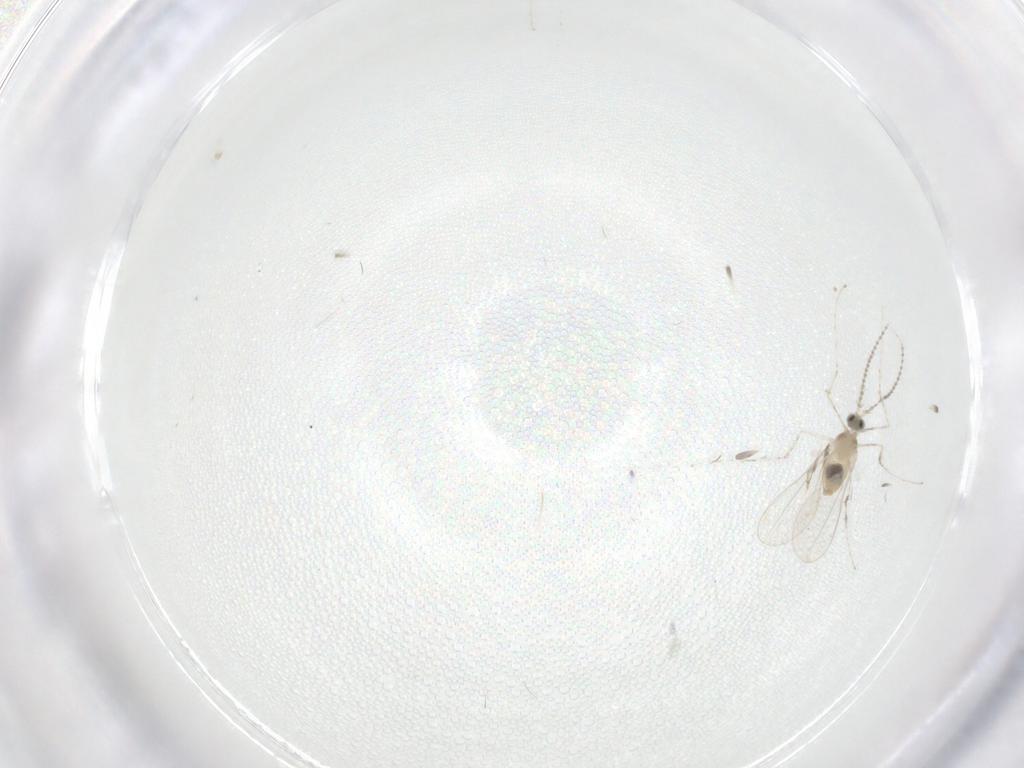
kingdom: Animalia
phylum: Arthropoda
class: Insecta
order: Diptera
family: Cecidomyiidae
